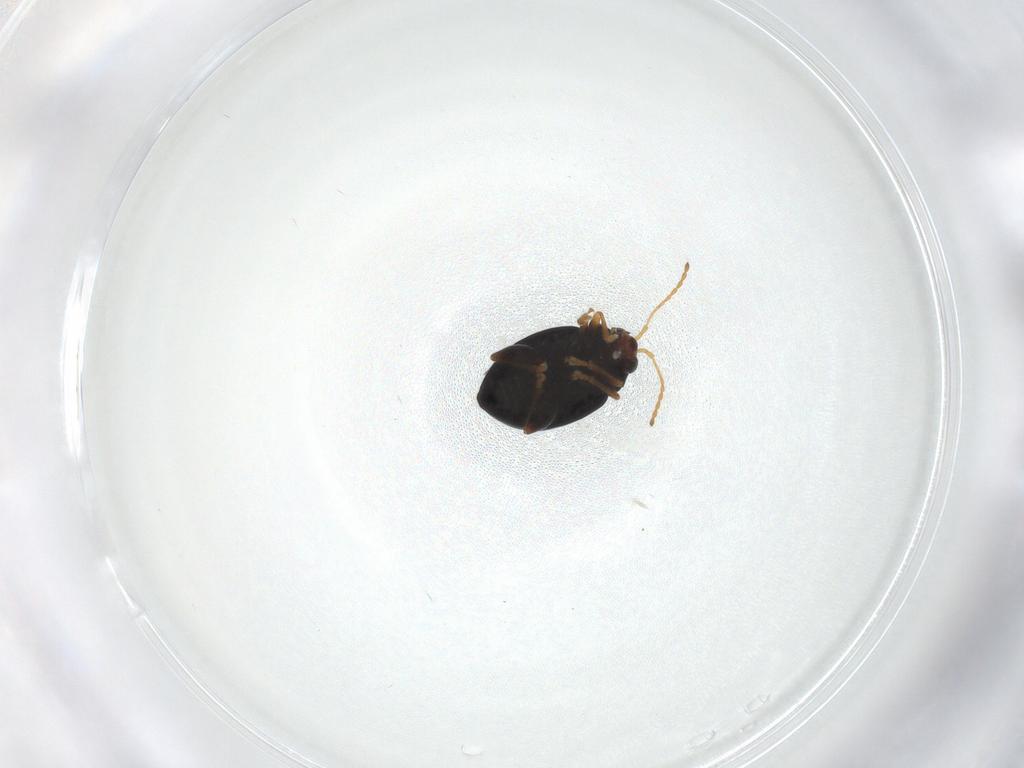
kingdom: Animalia
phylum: Arthropoda
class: Insecta
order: Coleoptera
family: Chrysomelidae
